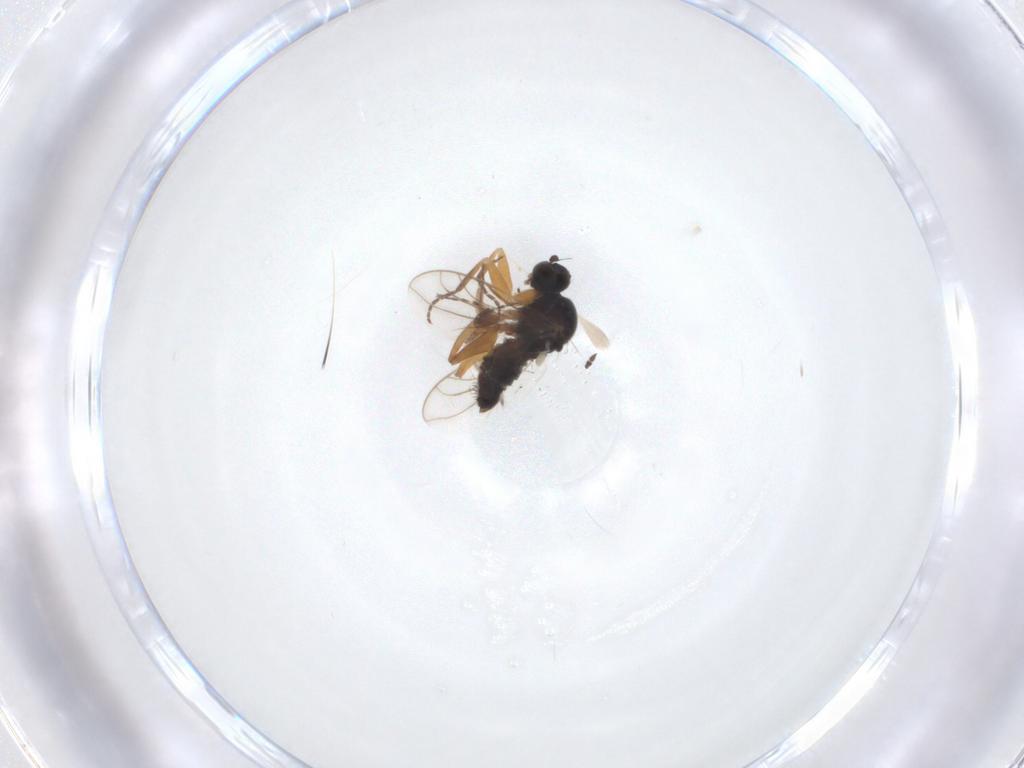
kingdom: Animalia
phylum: Arthropoda
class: Insecta
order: Diptera
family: Hybotidae
